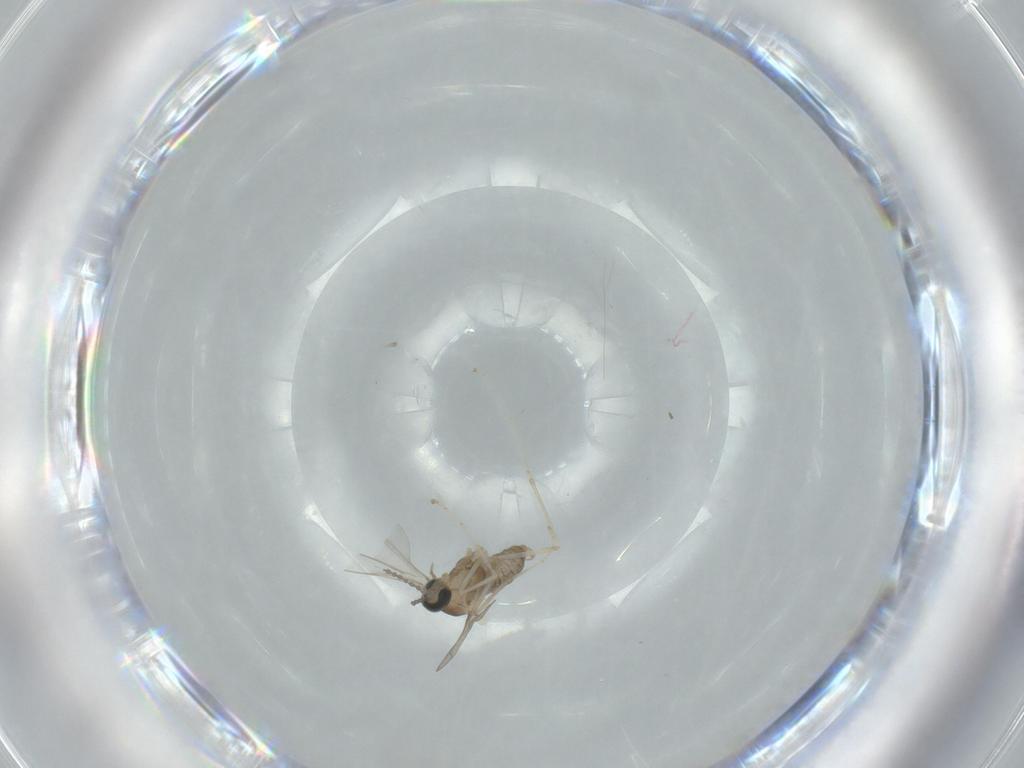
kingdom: Animalia
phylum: Arthropoda
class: Insecta
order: Diptera
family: Cecidomyiidae
